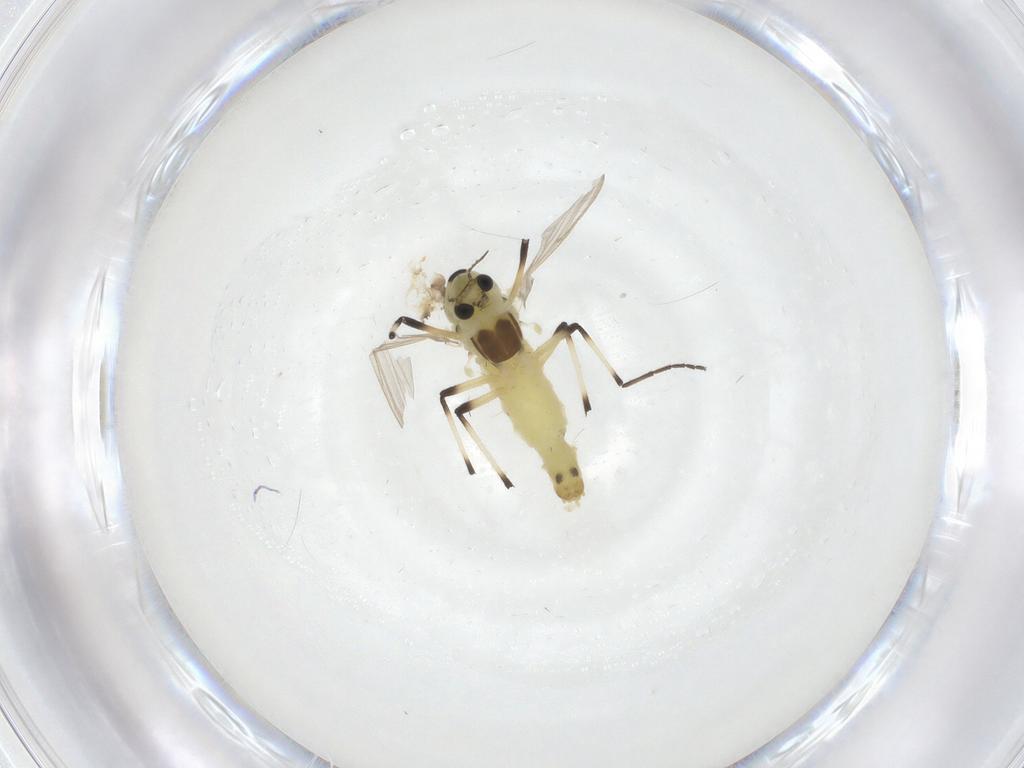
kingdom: Animalia
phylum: Arthropoda
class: Insecta
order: Diptera
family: Chironomidae
